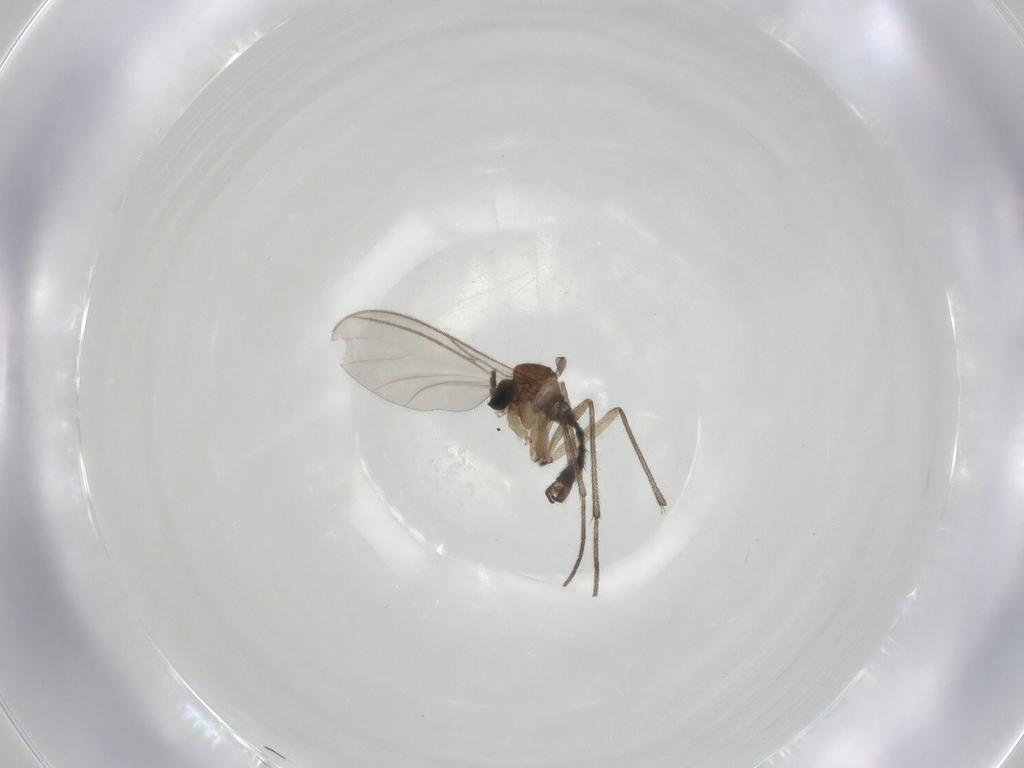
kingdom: Animalia
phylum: Arthropoda
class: Insecta
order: Diptera
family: Sciaridae
